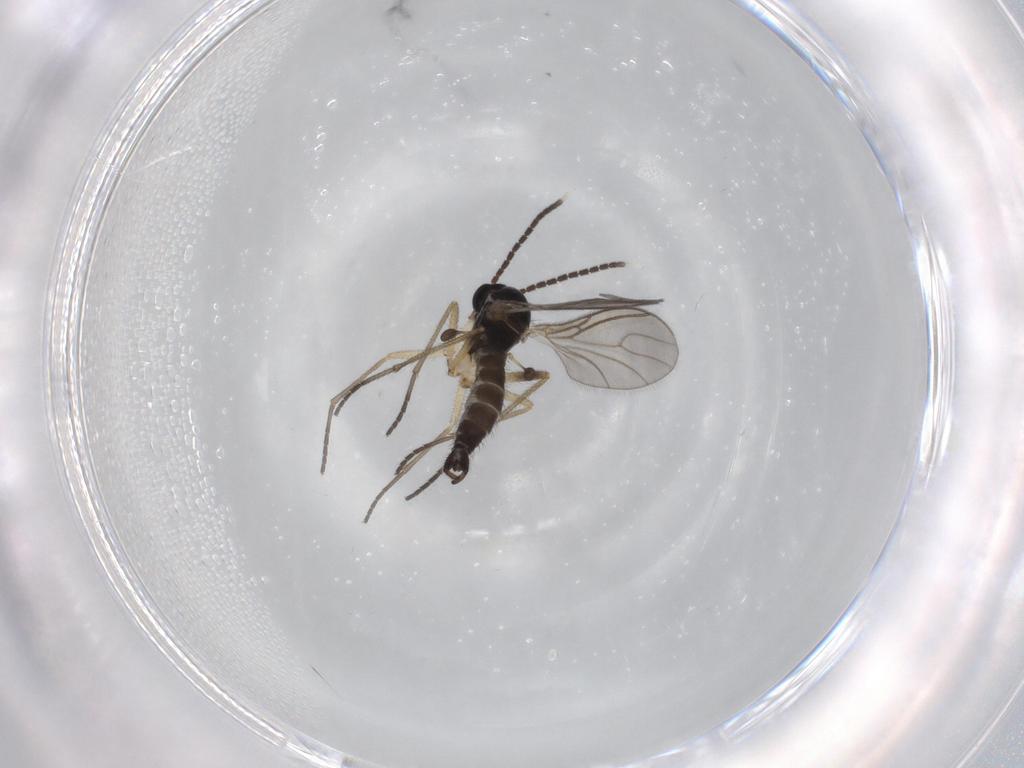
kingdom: Animalia
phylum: Arthropoda
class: Insecta
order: Diptera
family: Sciaridae
